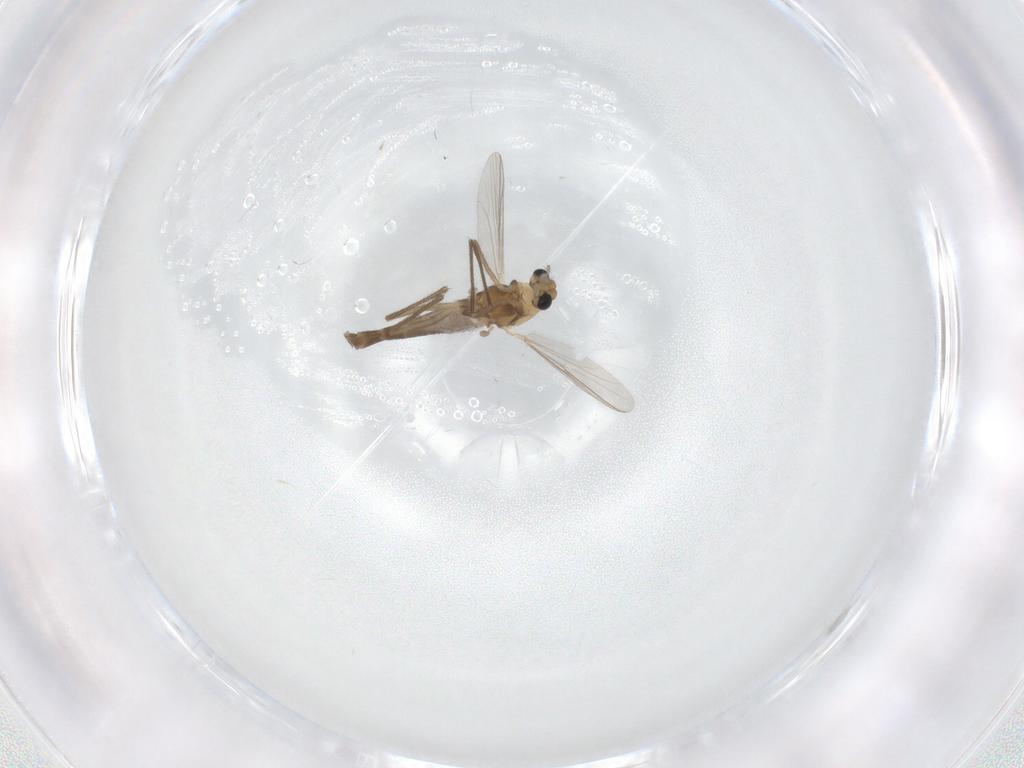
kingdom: Animalia
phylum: Arthropoda
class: Insecta
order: Diptera
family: Chironomidae
